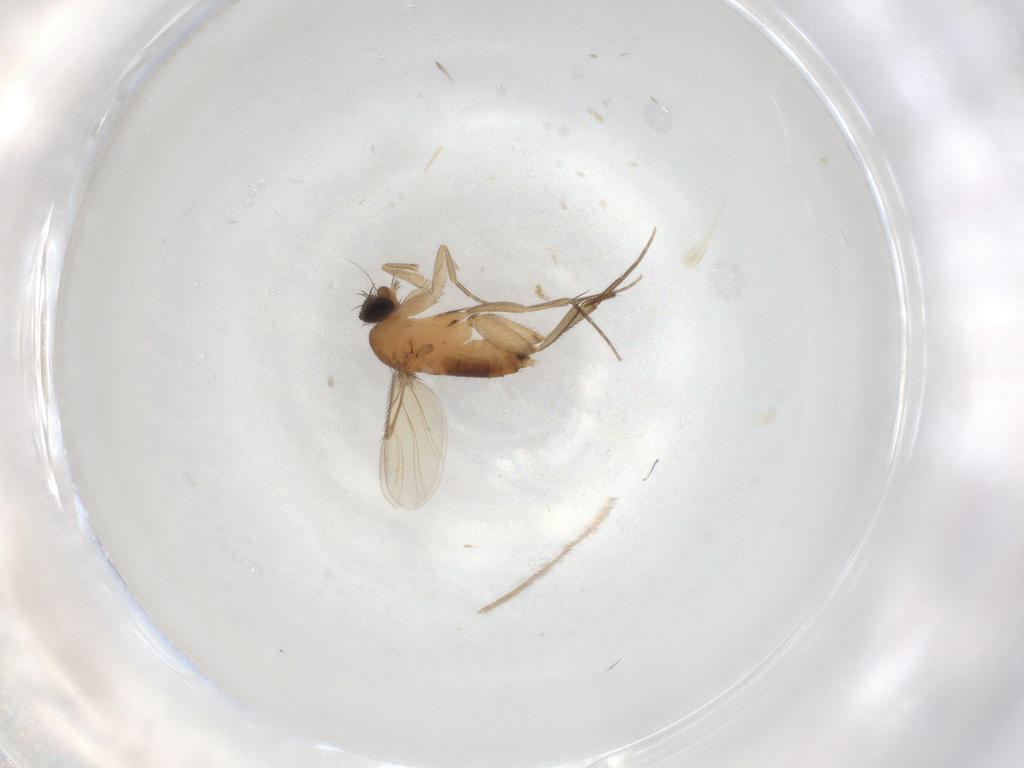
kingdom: Animalia
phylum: Arthropoda
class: Insecta
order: Diptera
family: Phoridae
